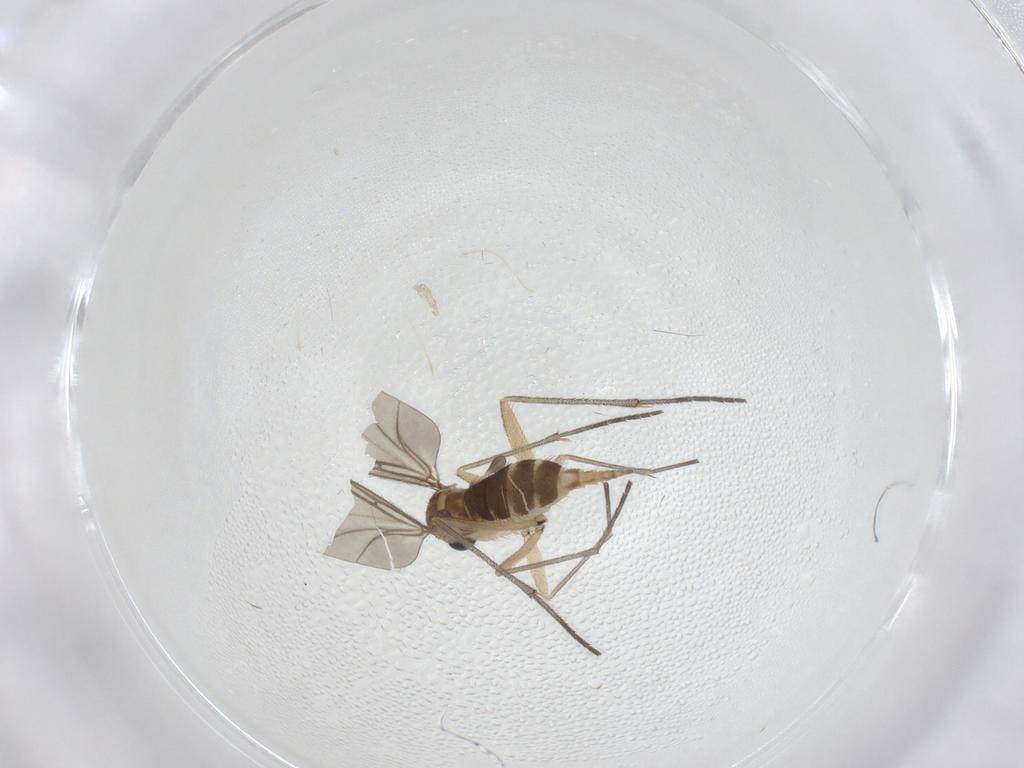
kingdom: Animalia
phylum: Arthropoda
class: Insecta
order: Diptera
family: Sciaridae
